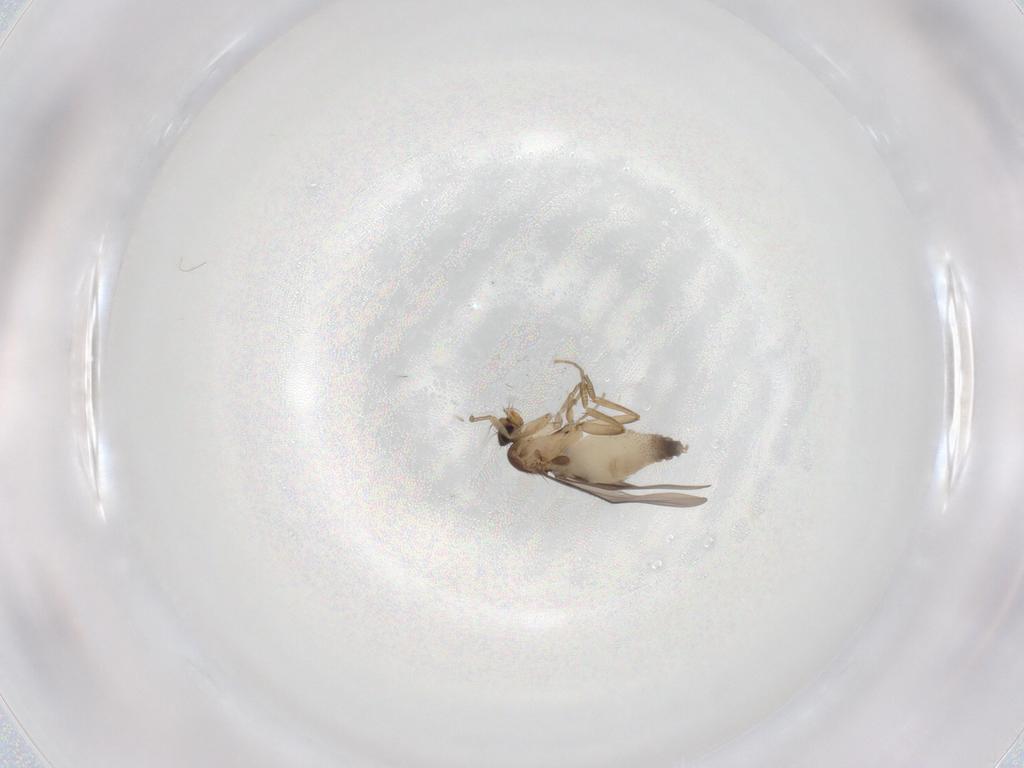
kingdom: Animalia
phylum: Arthropoda
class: Insecta
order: Diptera
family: Phoridae
